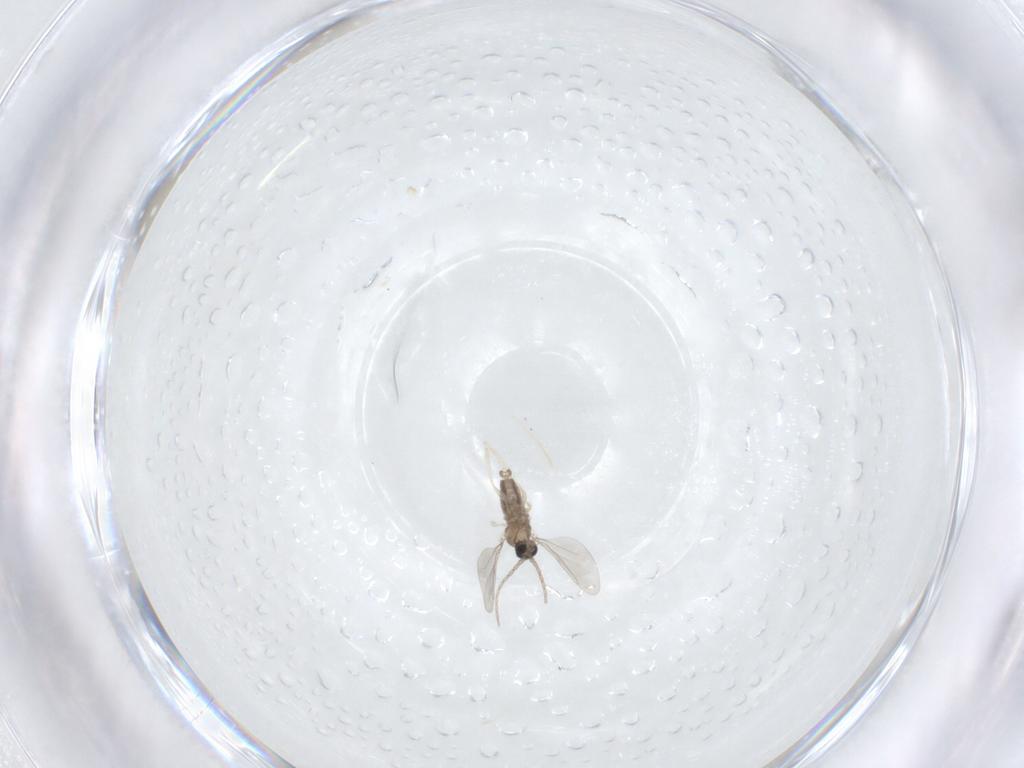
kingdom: Animalia
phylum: Arthropoda
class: Insecta
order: Diptera
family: Cecidomyiidae
